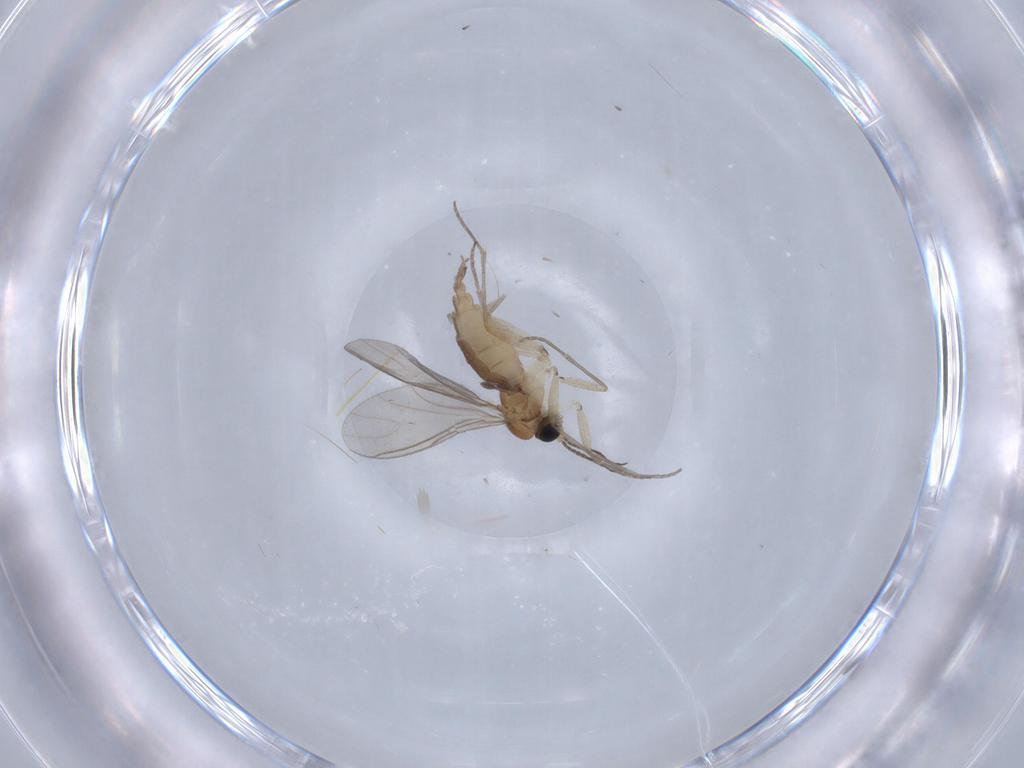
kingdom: Animalia
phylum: Arthropoda
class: Insecta
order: Diptera
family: Sciaridae
